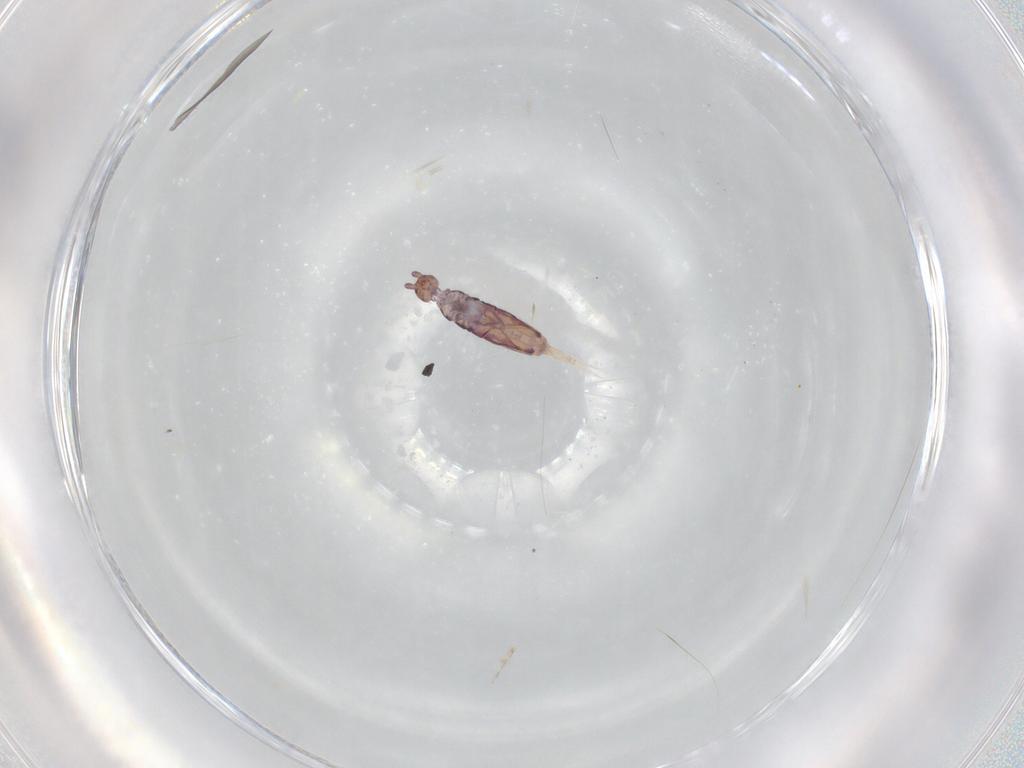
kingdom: Animalia
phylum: Arthropoda
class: Collembola
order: Entomobryomorpha
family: Entomobryidae
